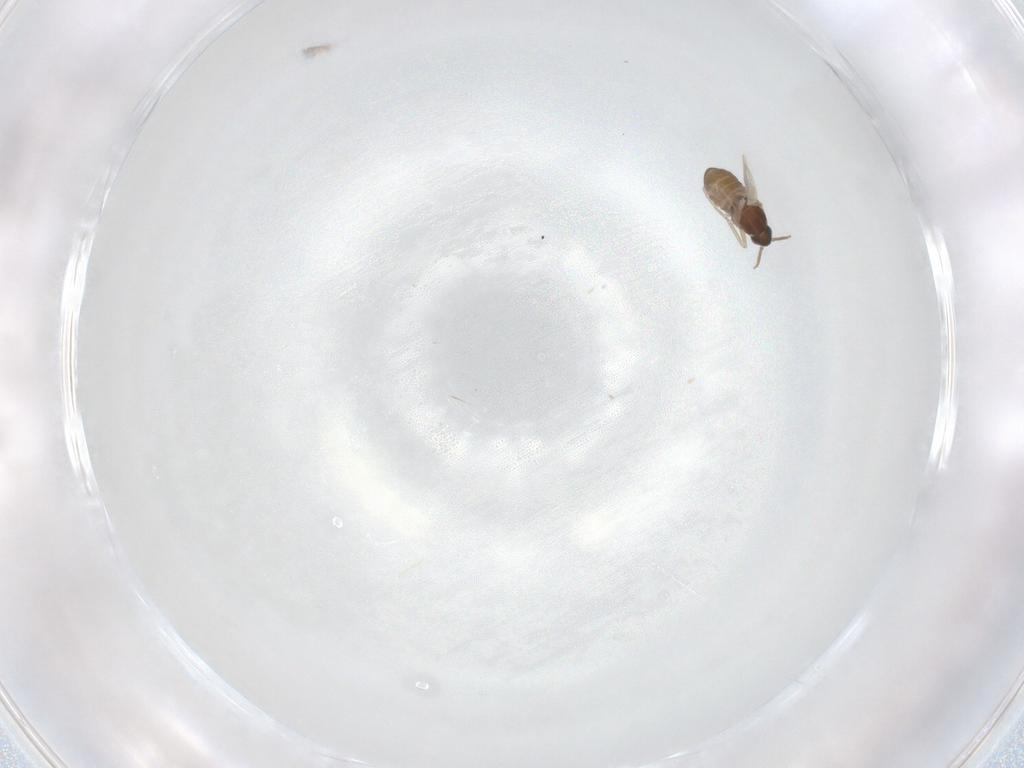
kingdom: Animalia
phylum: Arthropoda
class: Insecta
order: Diptera
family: Cecidomyiidae
